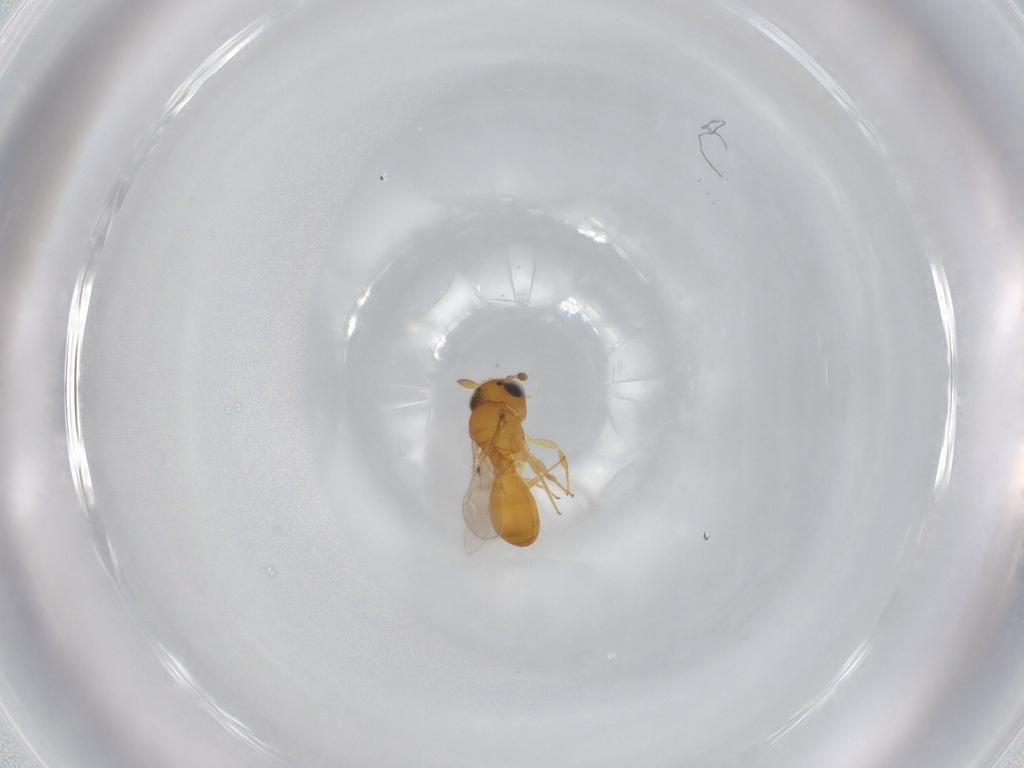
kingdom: Animalia
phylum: Arthropoda
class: Insecta
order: Hymenoptera
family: Scelionidae
